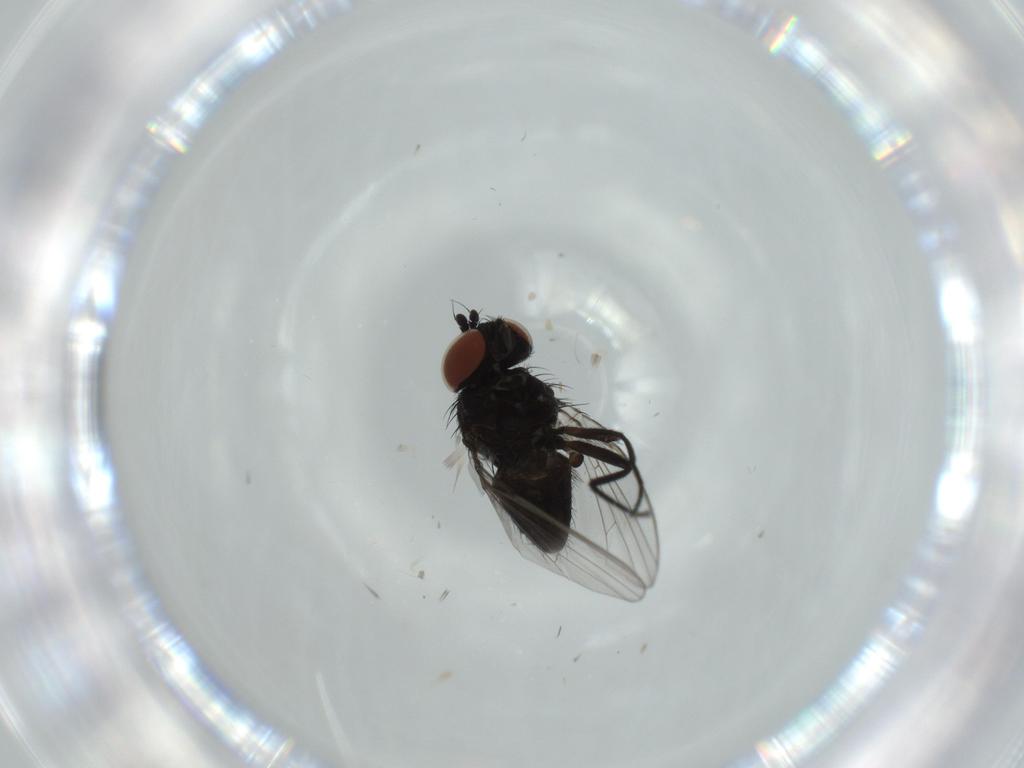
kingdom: Animalia
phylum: Arthropoda
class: Insecta
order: Diptera
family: Milichiidae
